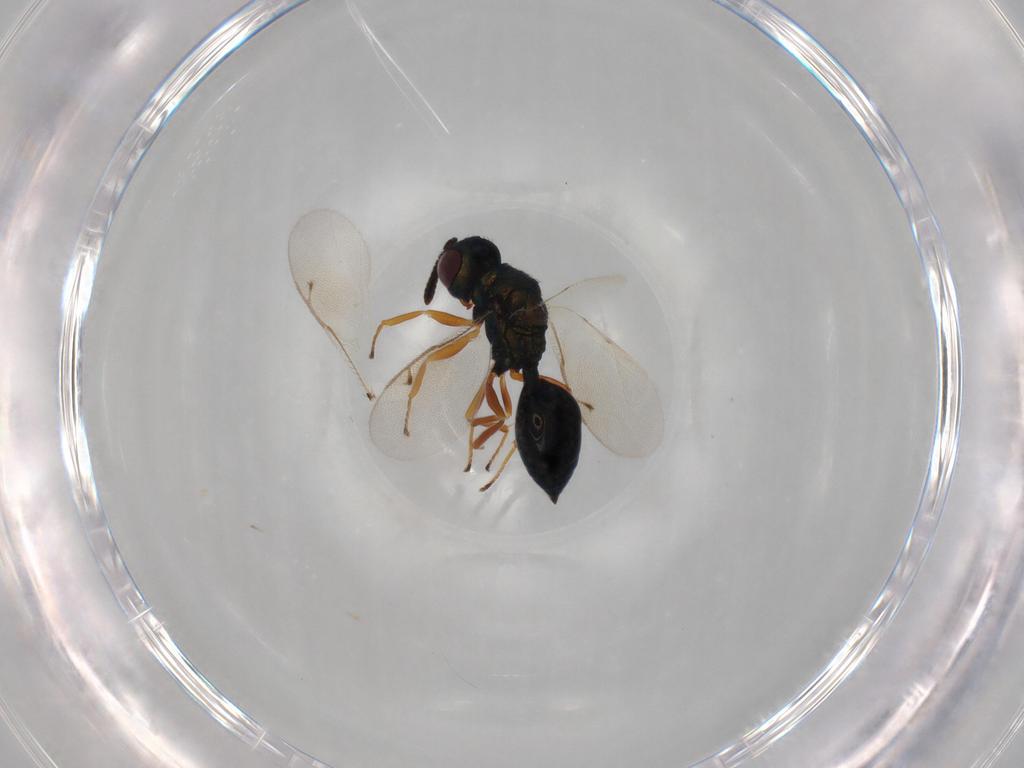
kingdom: Animalia
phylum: Arthropoda
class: Insecta
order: Hymenoptera
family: Pteromalidae
